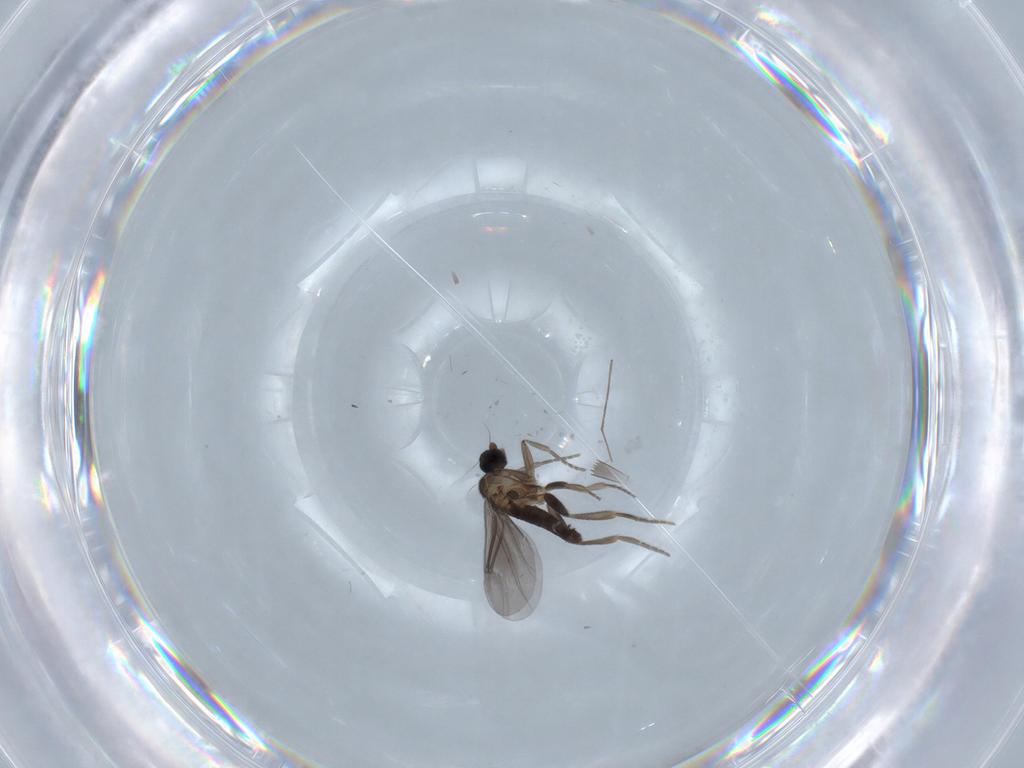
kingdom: Animalia
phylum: Arthropoda
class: Insecta
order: Diptera
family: Phoridae
